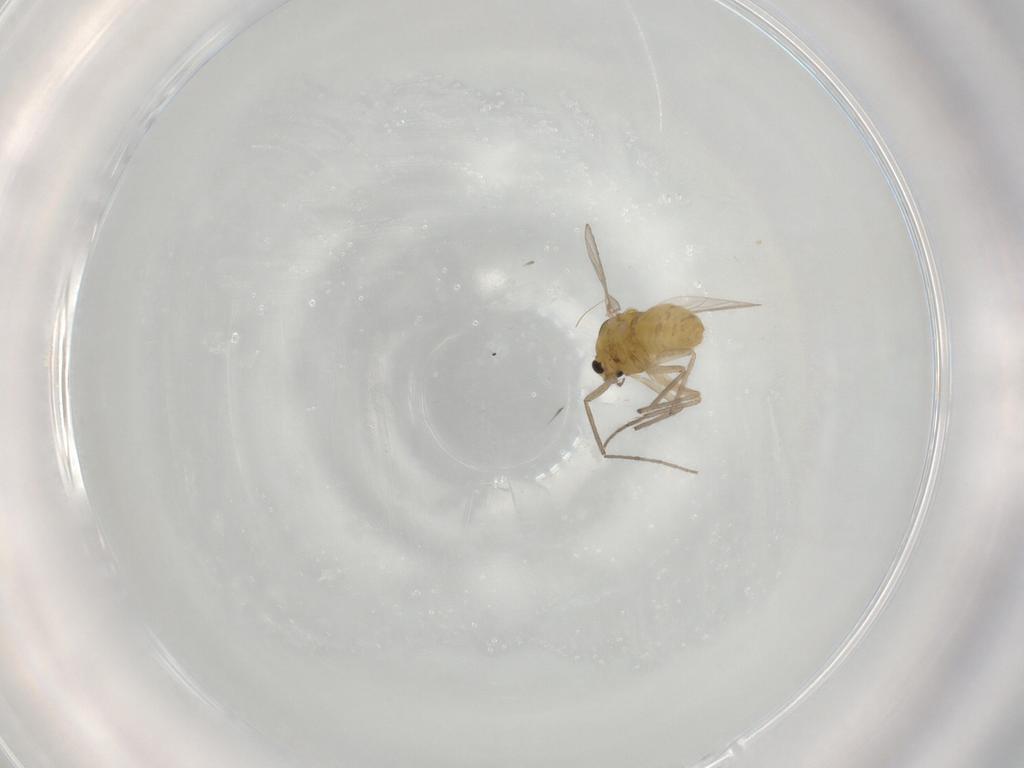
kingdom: Animalia
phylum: Arthropoda
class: Insecta
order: Diptera
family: Chironomidae
